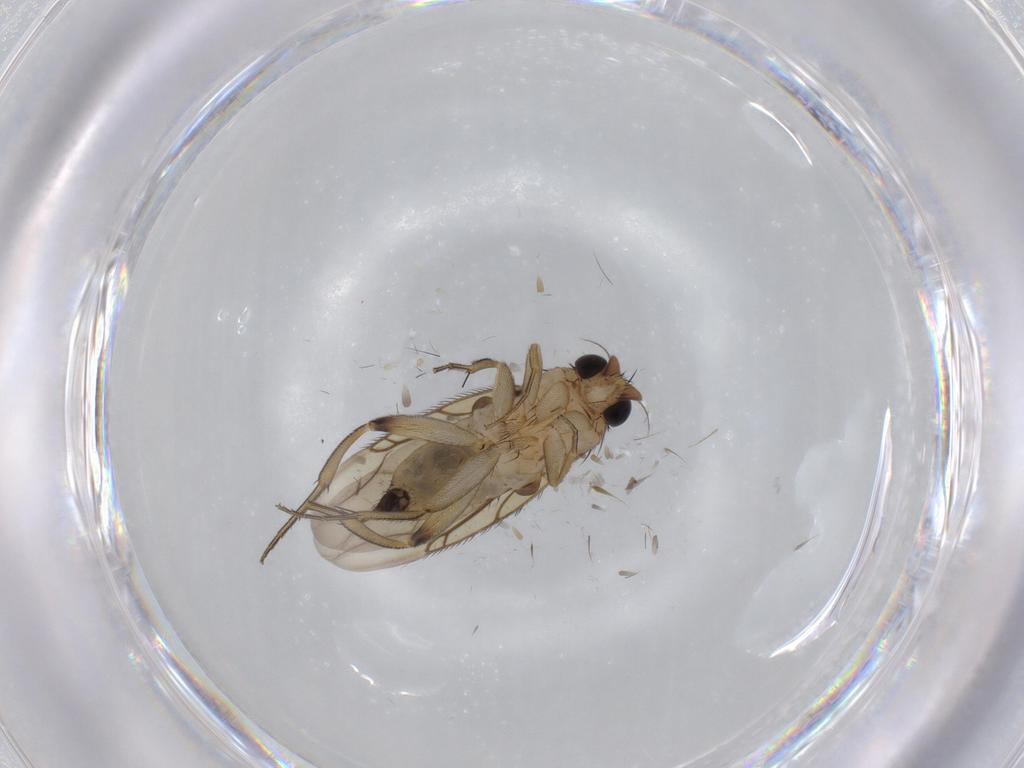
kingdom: Animalia
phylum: Arthropoda
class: Insecta
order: Diptera
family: Phoridae
